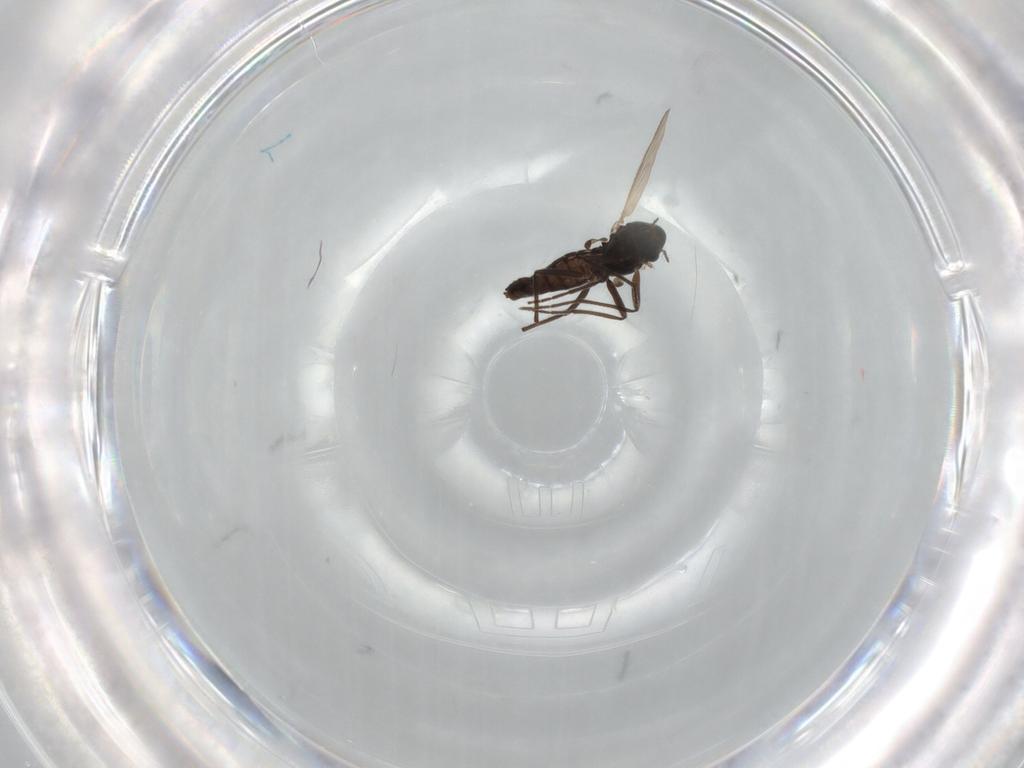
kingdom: Animalia
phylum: Arthropoda
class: Insecta
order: Diptera
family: Chironomidae
